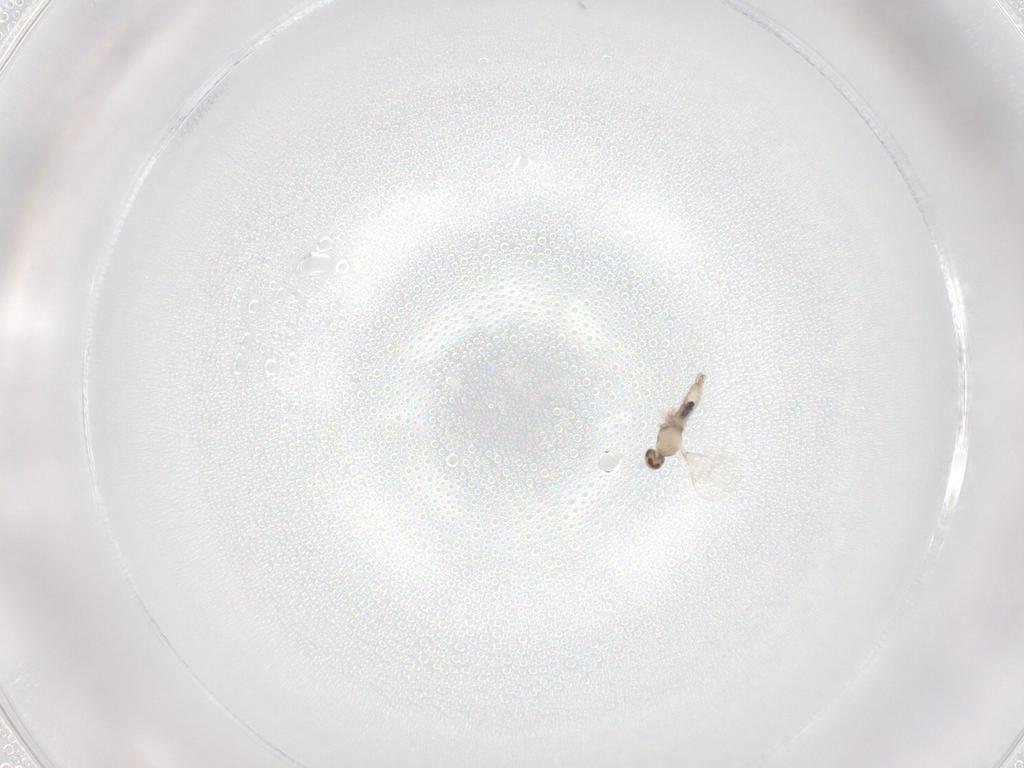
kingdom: Animalia
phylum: Arthropoda
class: Insecta
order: Diptera
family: Cecidomyiidae
